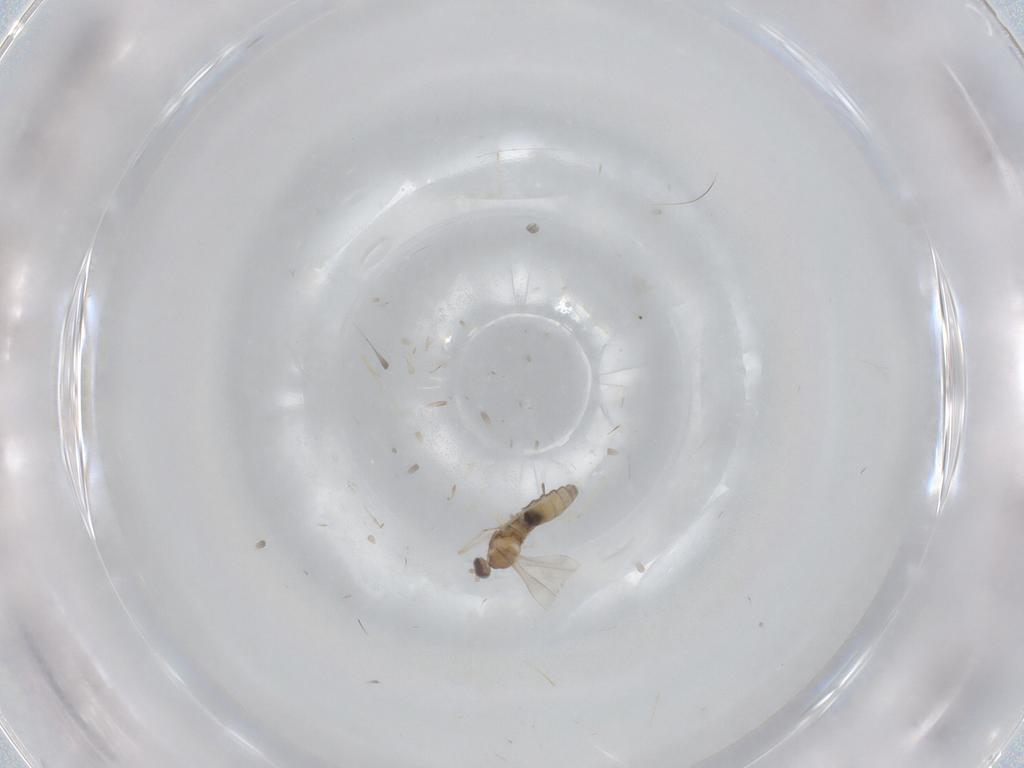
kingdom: Animalia
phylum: Arthropoda
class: Insecta
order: Diptera
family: Cecidomyiidae
